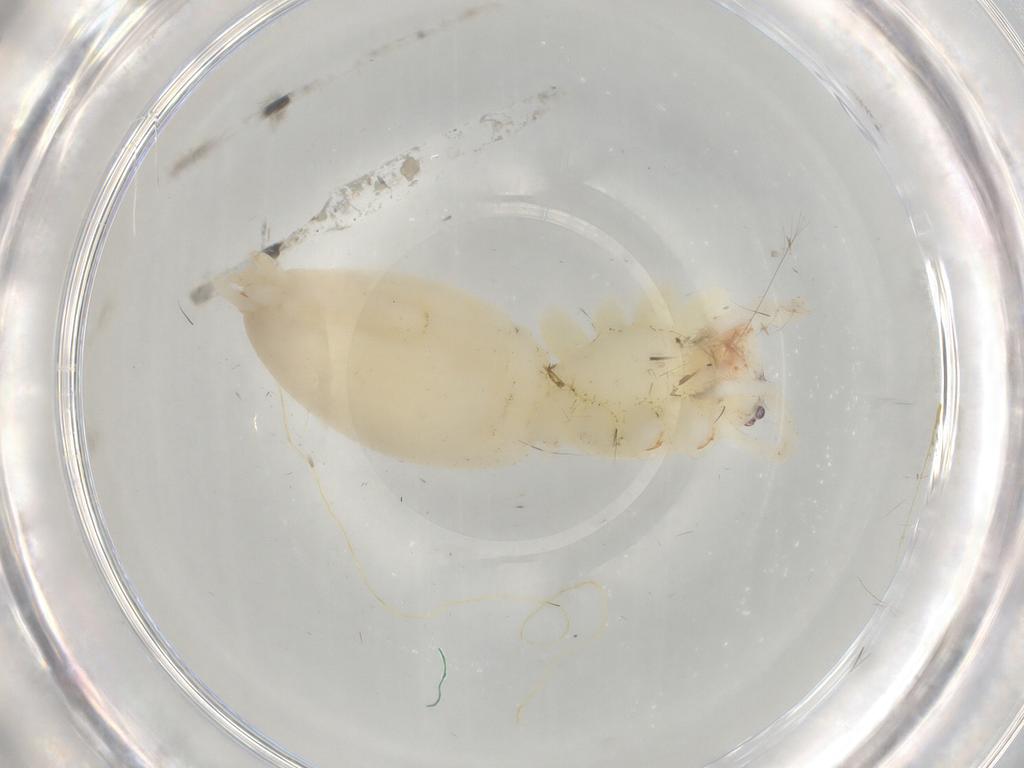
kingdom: Animalia
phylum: Arthropoda
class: Arachnida
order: Araneae
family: Anyphaenidae
